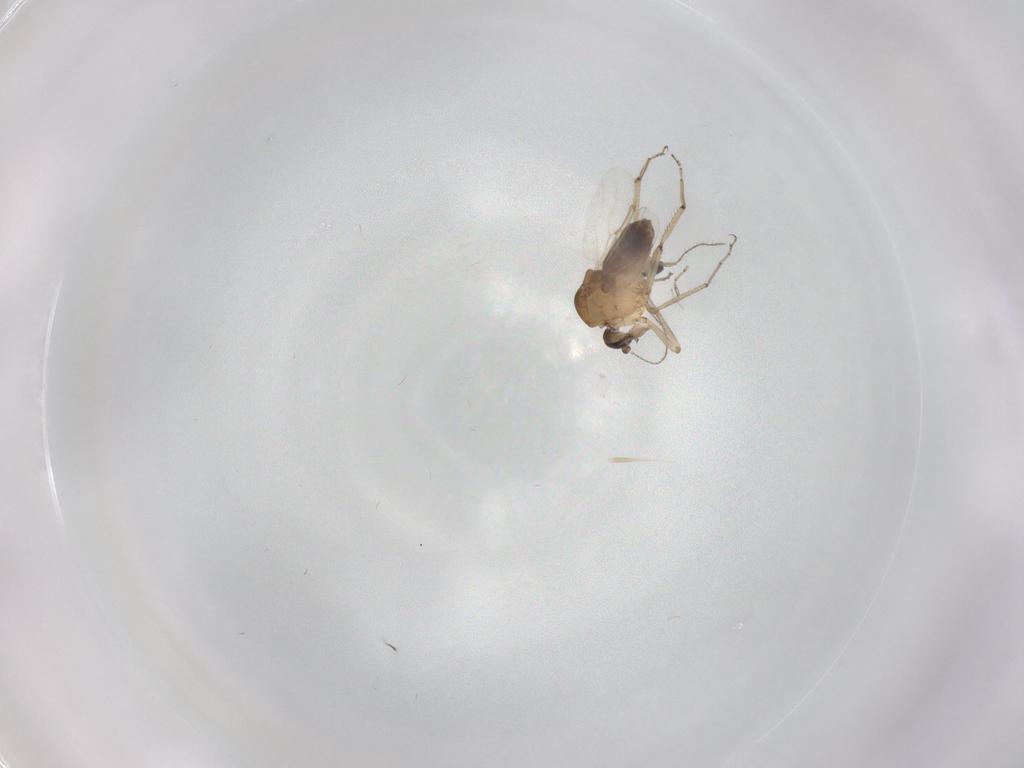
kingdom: Animalia
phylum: Arthropoda
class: Insecta
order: Diptera
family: Ceratopogonidae
